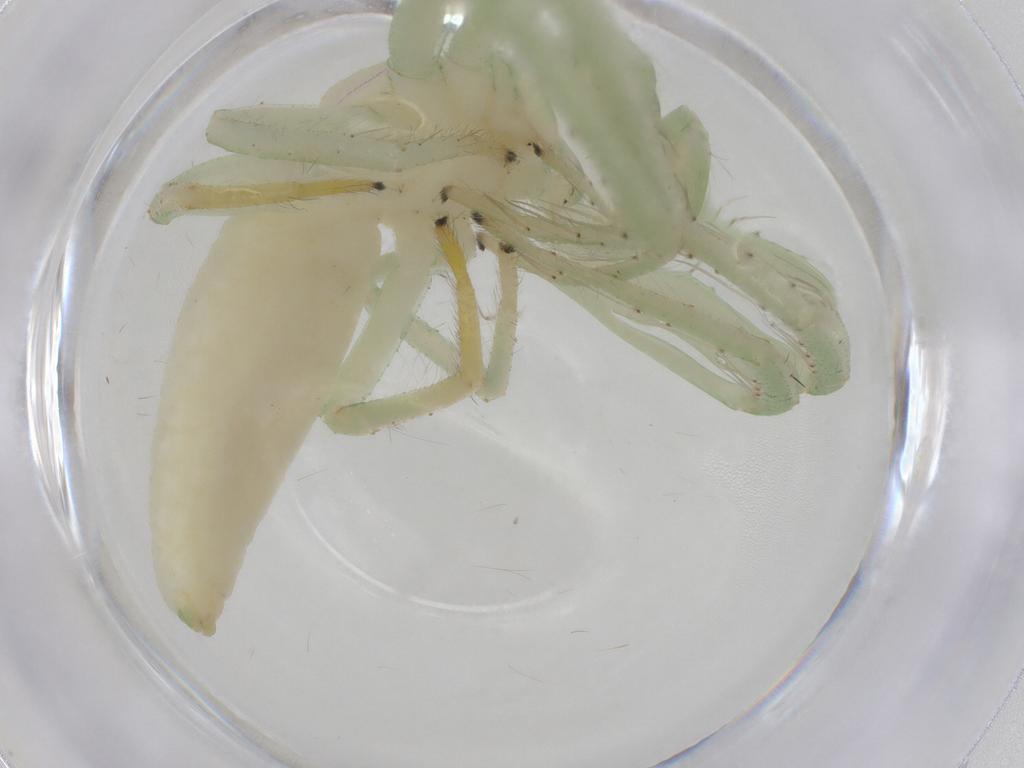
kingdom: Animalia
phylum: Arthropoda
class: Insecta
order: Diptera
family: Chironomidae
